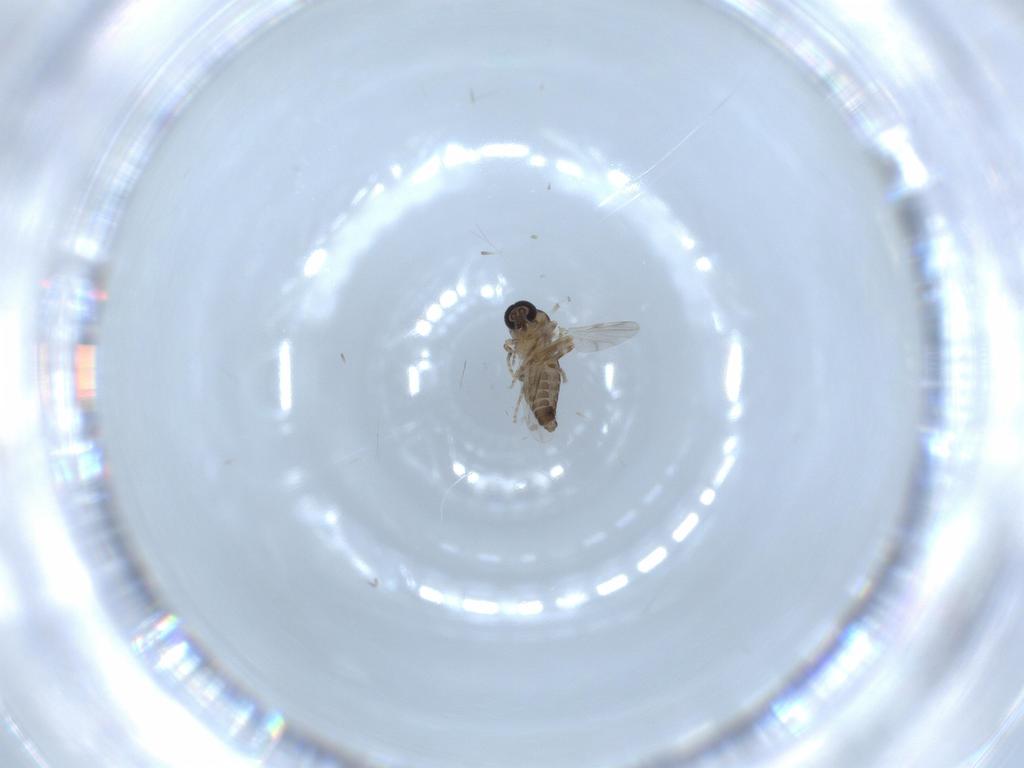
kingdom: Animalia
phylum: Arthropoda
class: Insecta
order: Diptera
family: Ceratopogonidae
